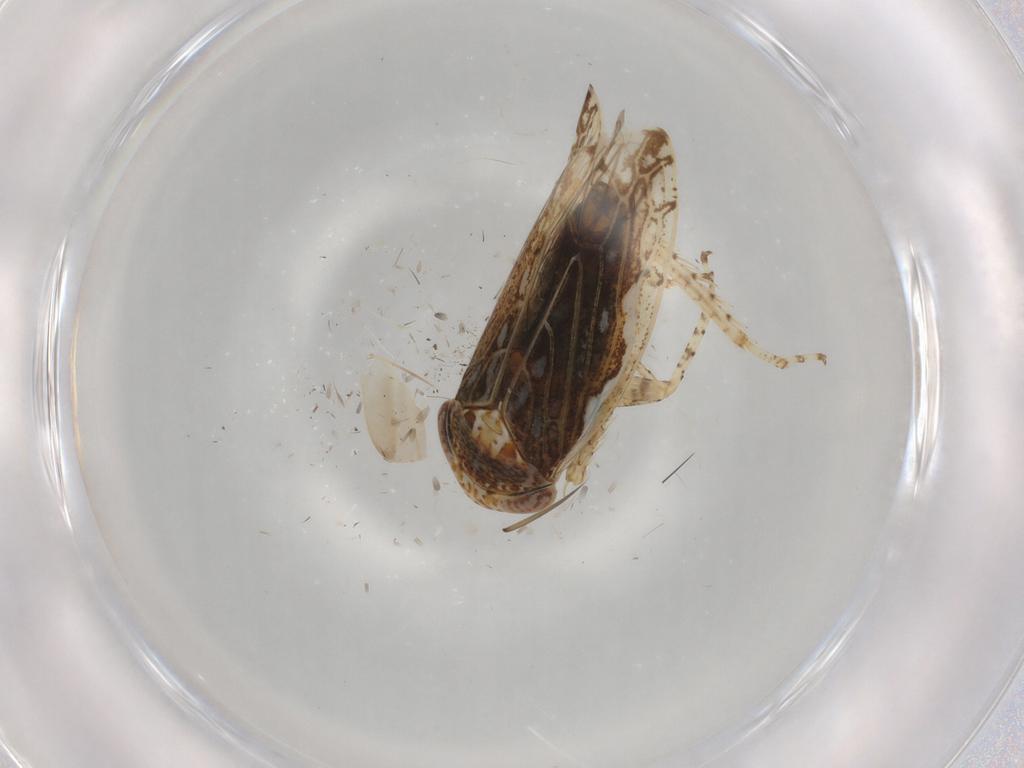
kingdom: Animalia
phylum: Arthropoda
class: Insecta
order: Hemiptera
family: Cicadellidae
